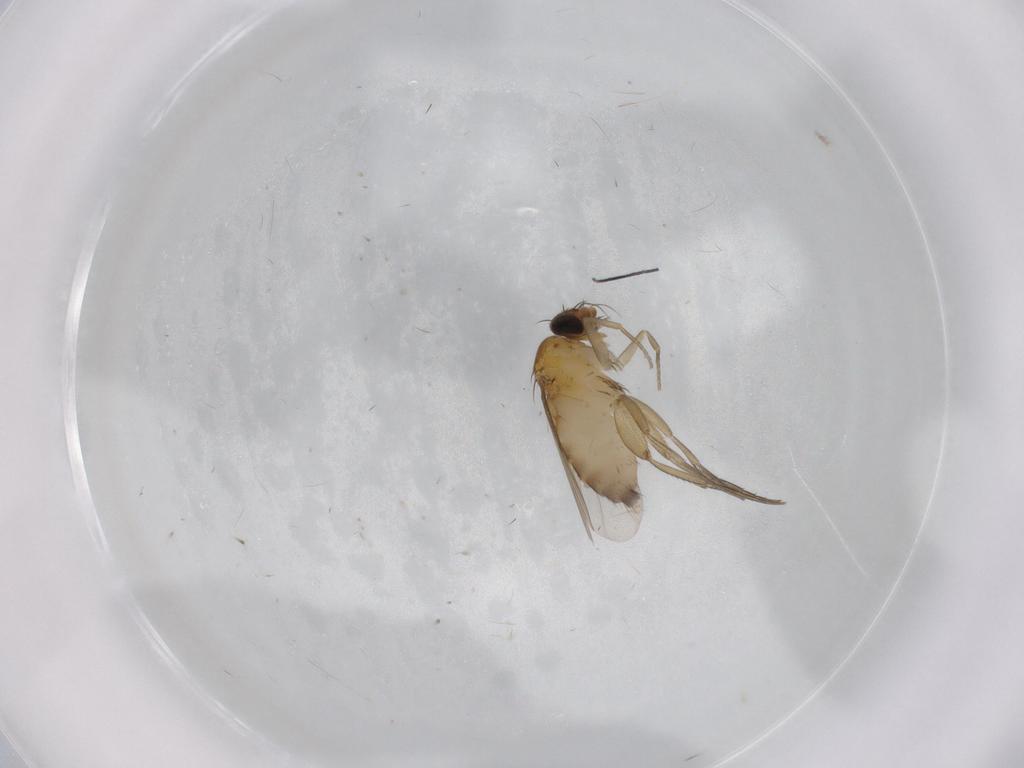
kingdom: Animalia
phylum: Arthropoda
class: Insecta
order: Diptera
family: Phoridae
